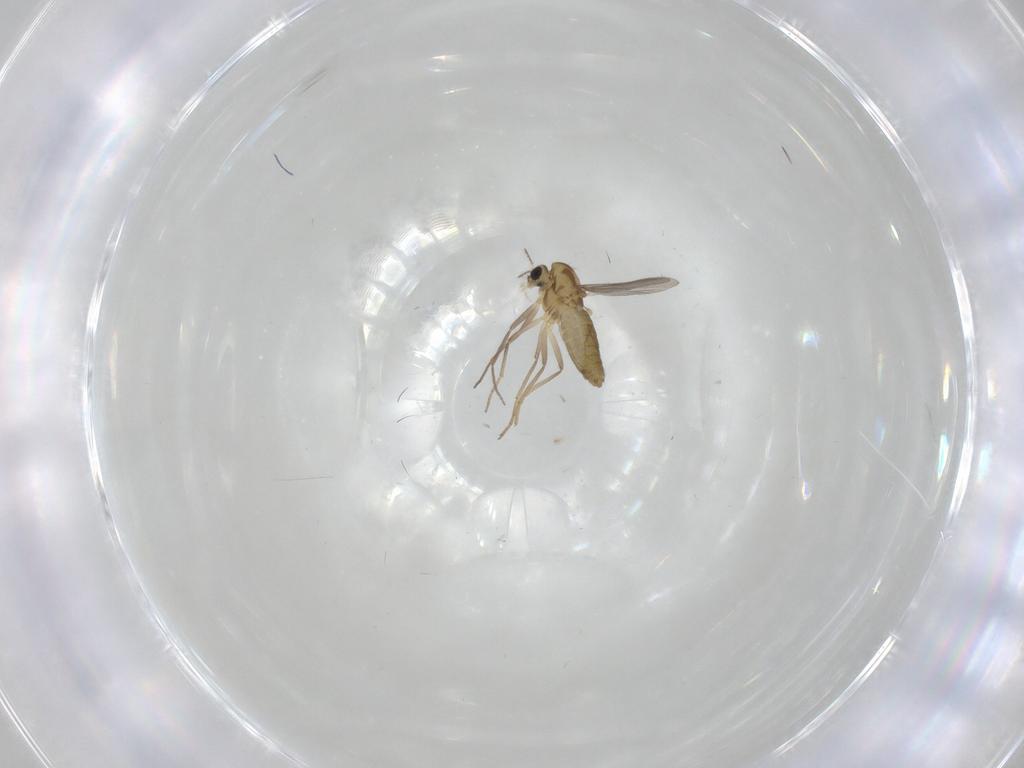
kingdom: Animalia
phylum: Arthropoda
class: Insecta
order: Diptera
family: Chironomidae
